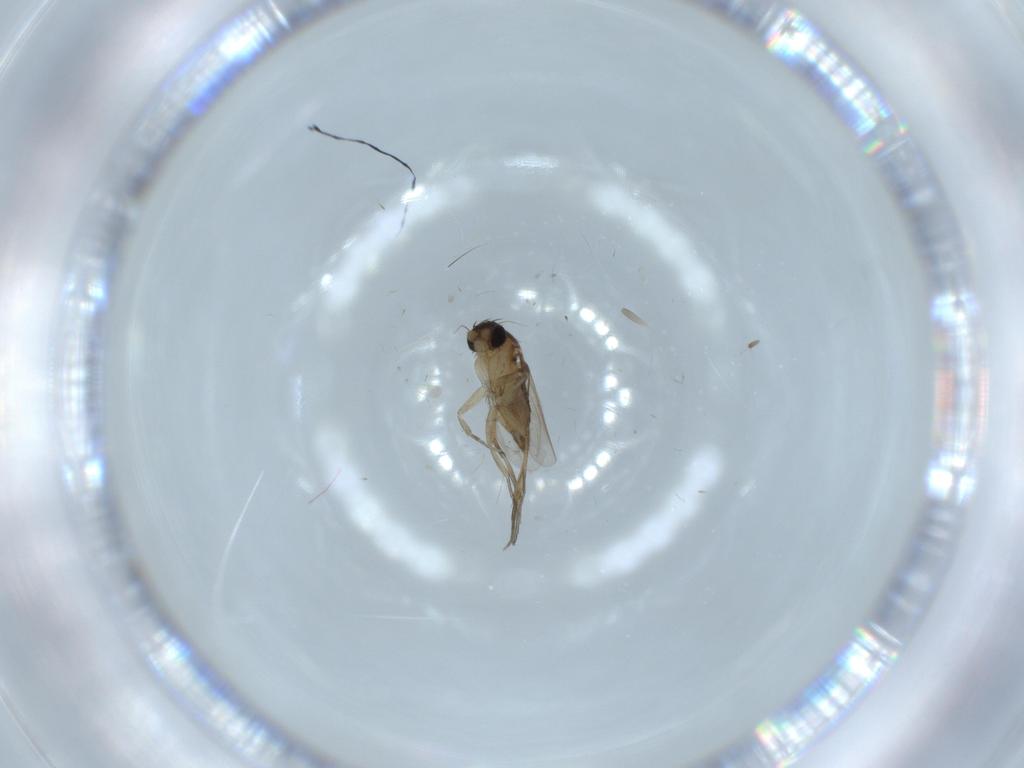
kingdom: Animalia
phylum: Arthropoda
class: Insecta
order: Diptera
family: Phoridae
